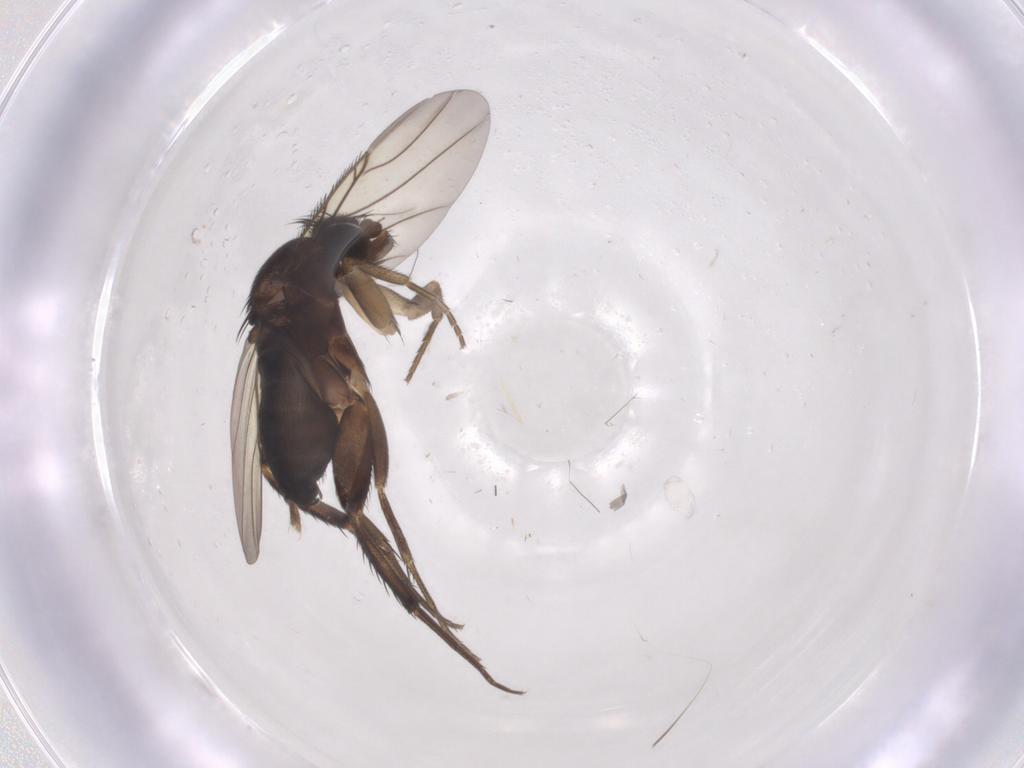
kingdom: Animalia
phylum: Arthropoda
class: Insecta
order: Diptera
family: Phoridae
